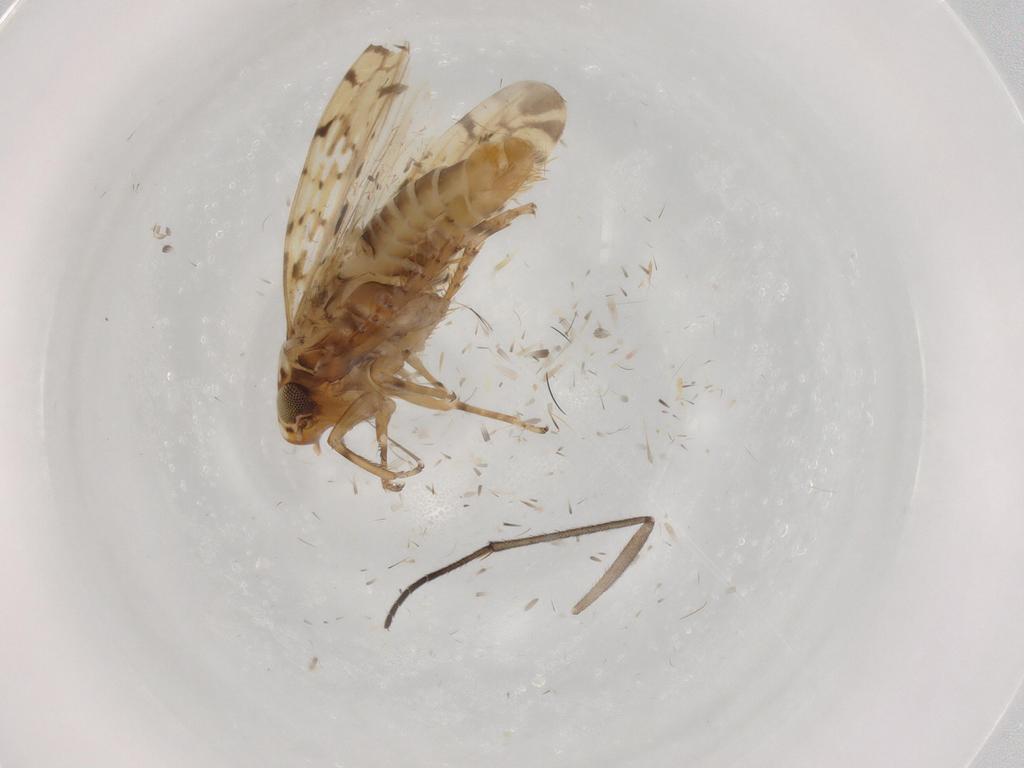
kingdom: Animalia
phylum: Arthropoda
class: Insecta
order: Hemiptera
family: Cicadellidae
